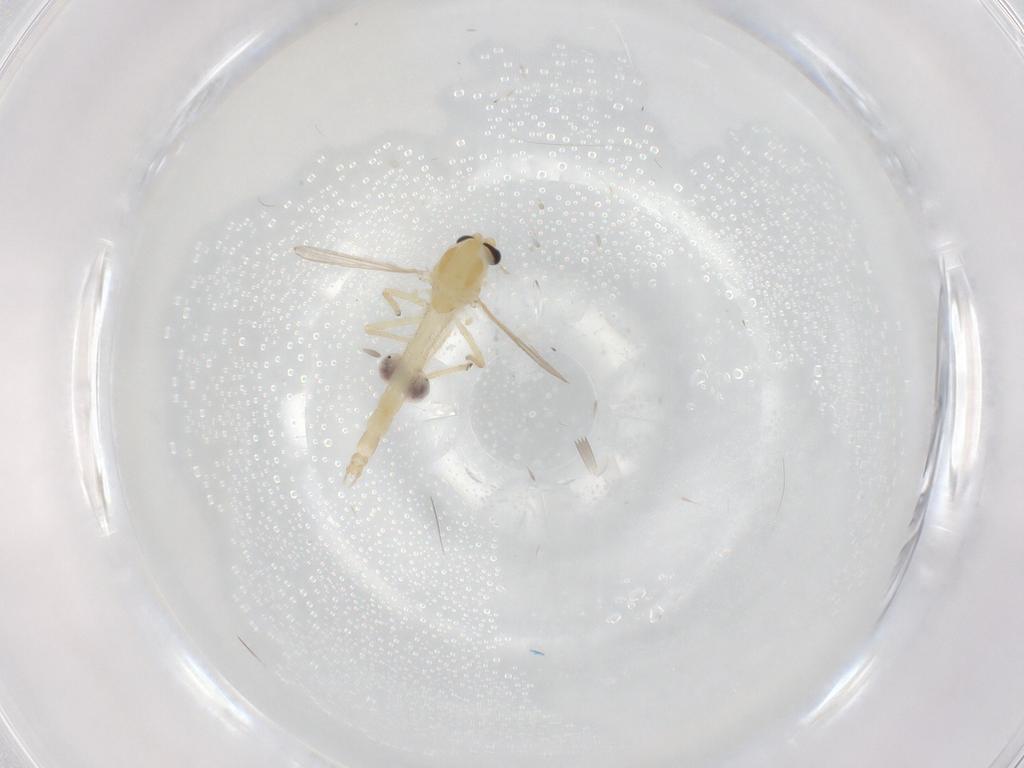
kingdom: Animalia
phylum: Arthropoda
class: Insecta
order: Diptera
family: Chironomidae
